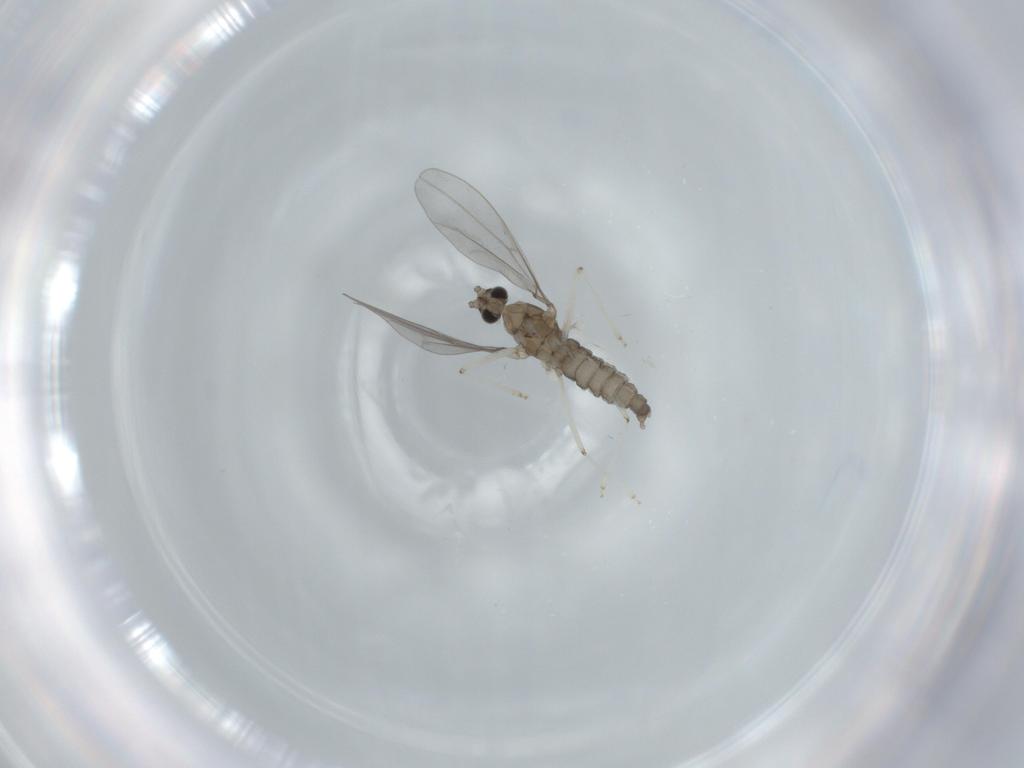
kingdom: Animalia
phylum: Arthropoda
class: Insecta
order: Diptera
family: Cecidomyiidae
